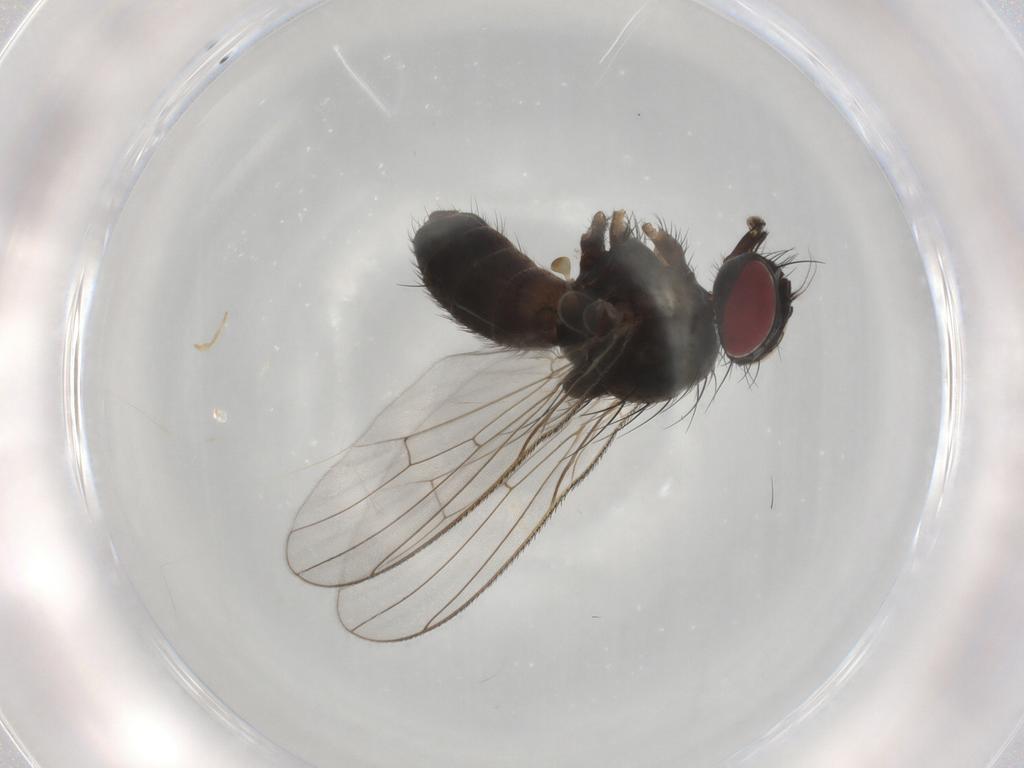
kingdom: Animalia
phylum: Arthropoda
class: Insecta
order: Diptera
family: Muscidae
